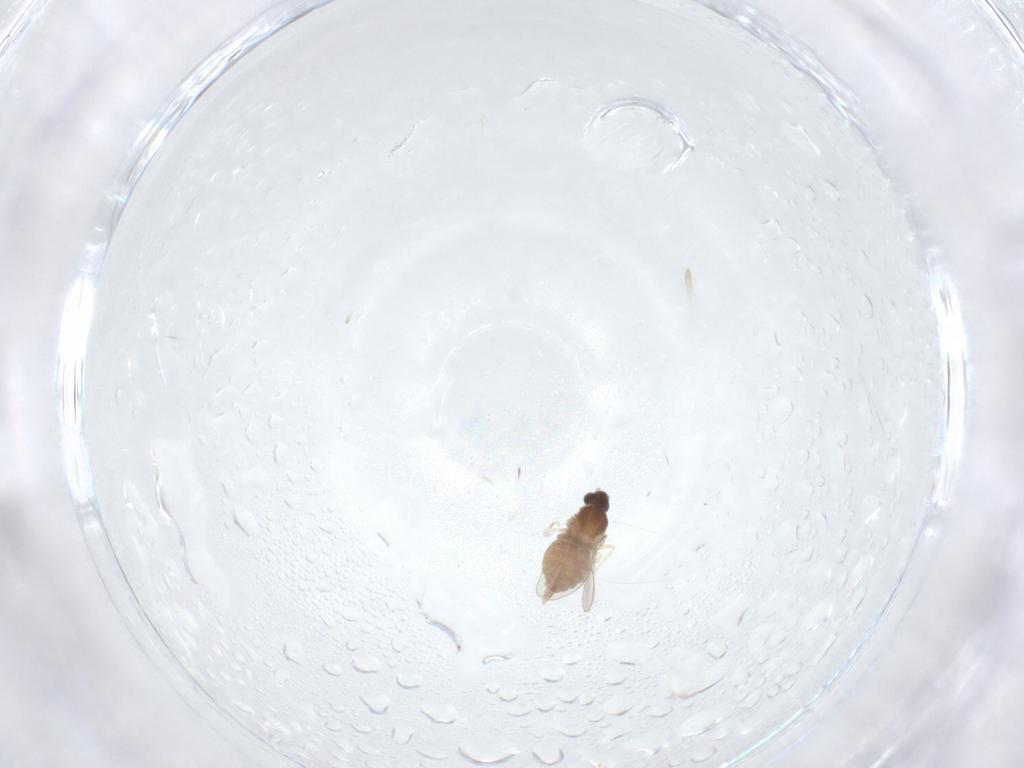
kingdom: Animalia
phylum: Arthropoda
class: Insecta
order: Diptera
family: Cecidomyiidae
